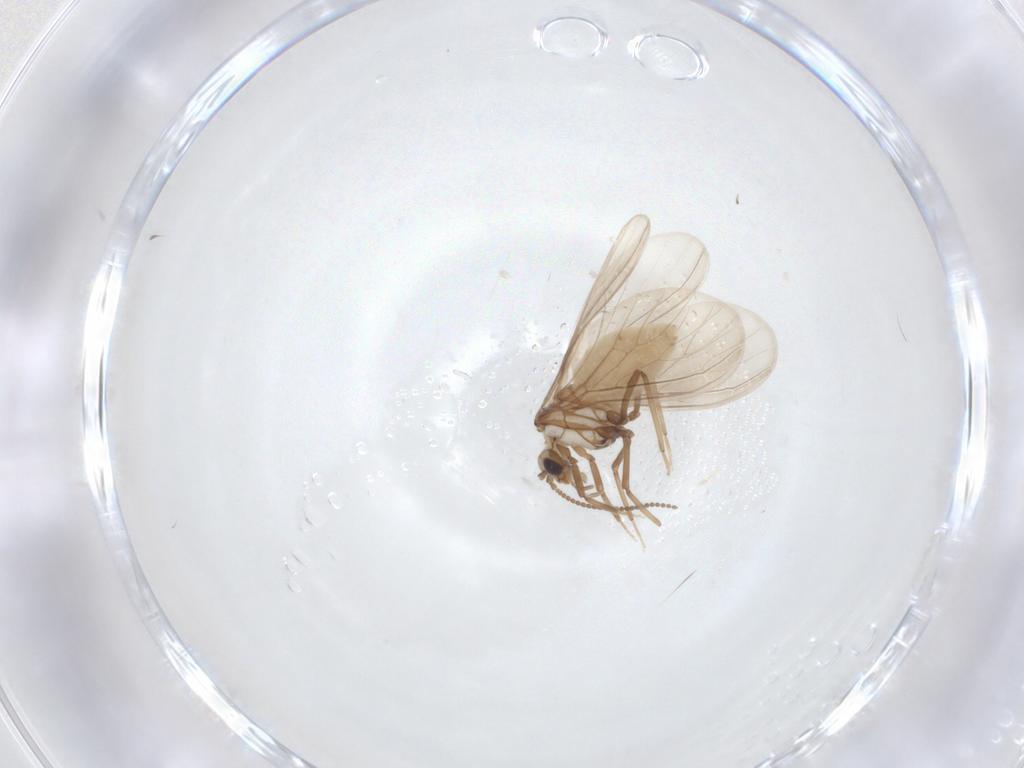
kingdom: Animalia
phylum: Arthropoda
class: Insecta
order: Neuroptera
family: Coniopterygidae
